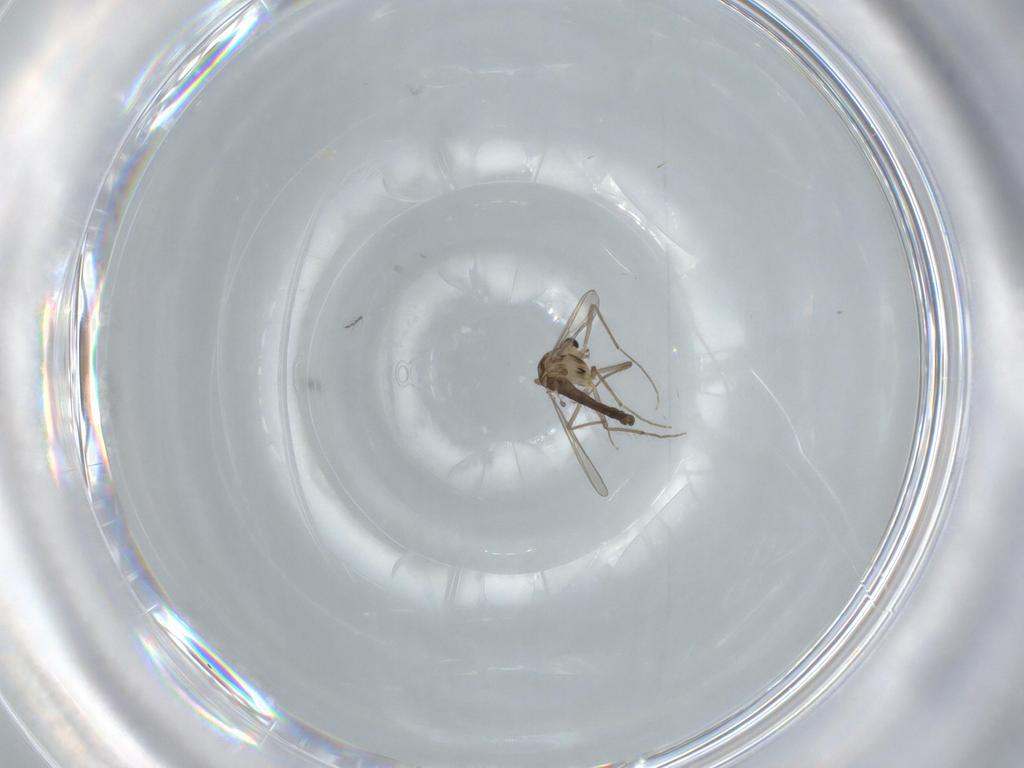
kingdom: Animalia
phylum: Arthropoda
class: Insecta
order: Diptera
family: Chironomidae
